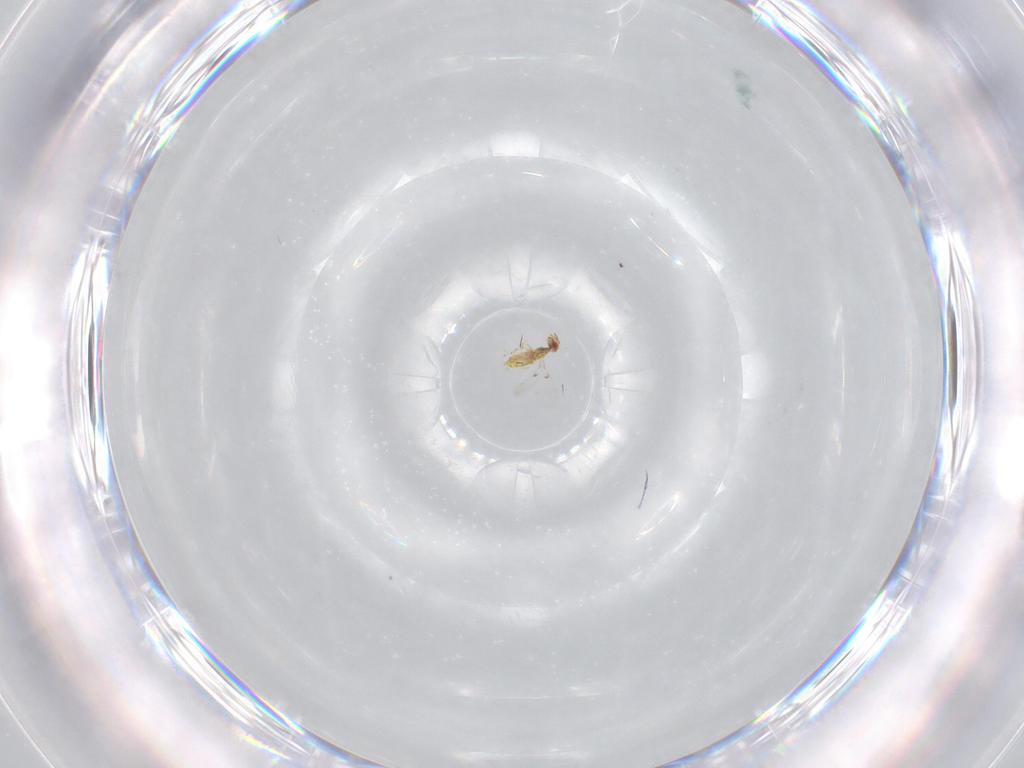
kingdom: Animalia
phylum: Arthropoda
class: Insecta
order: Hymenoptera
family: Trichogrammatidae
